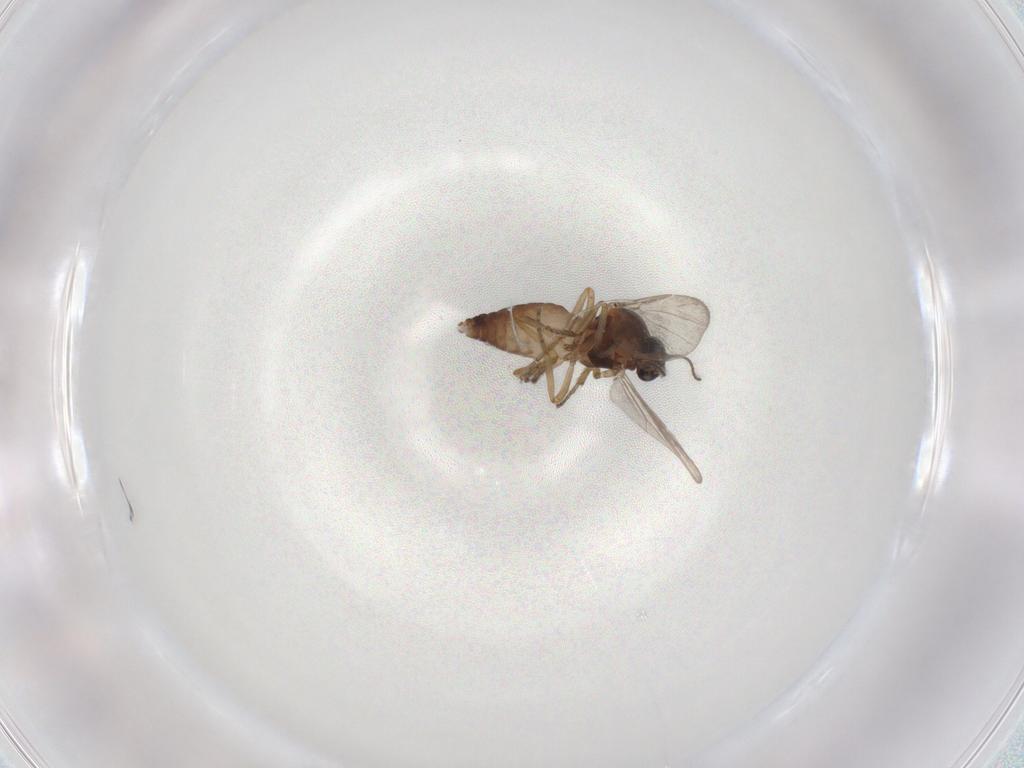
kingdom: Animalia
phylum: Arthropoda
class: Insecta
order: Diptera
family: Ceratopogonidae
